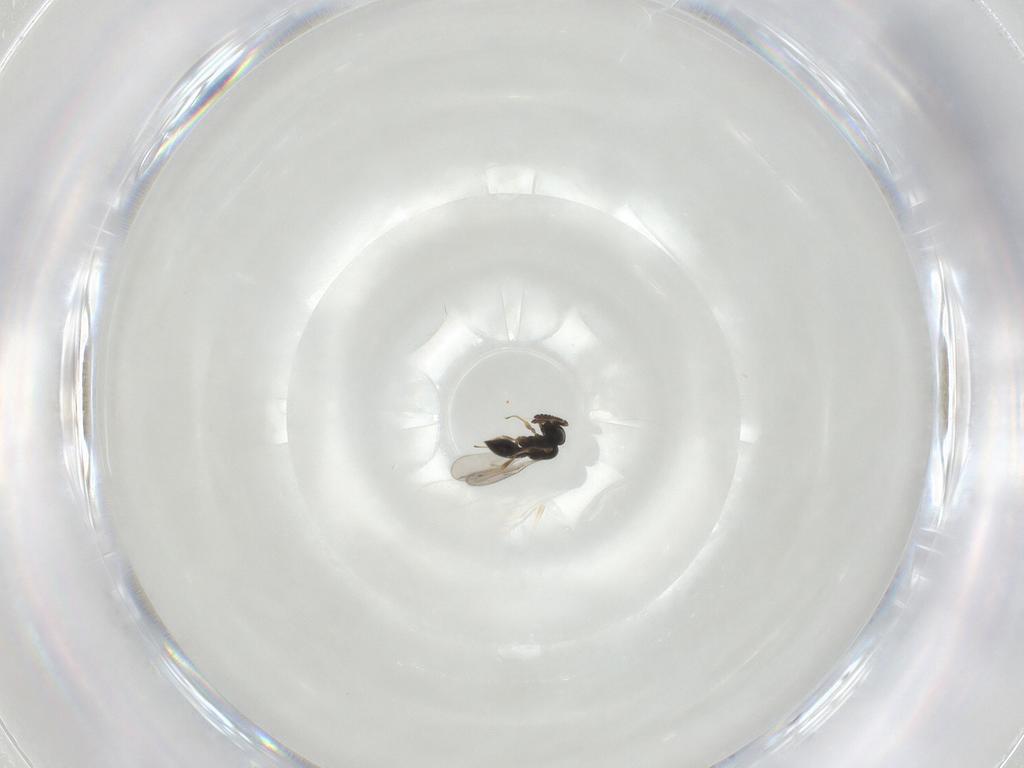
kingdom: Animalia
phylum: Arthropoda
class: Insecta
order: Hymenoptera
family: Scelionidae
